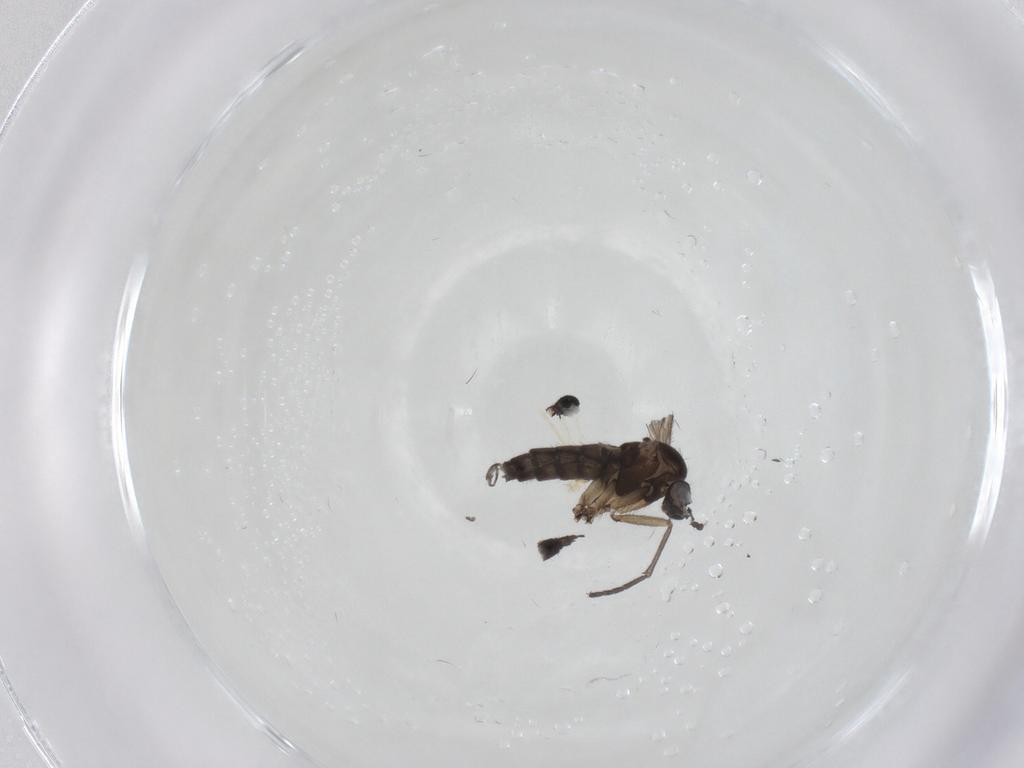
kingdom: Animalia
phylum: Arthropoda
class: Insecta
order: Diptera
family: Sciaridae
